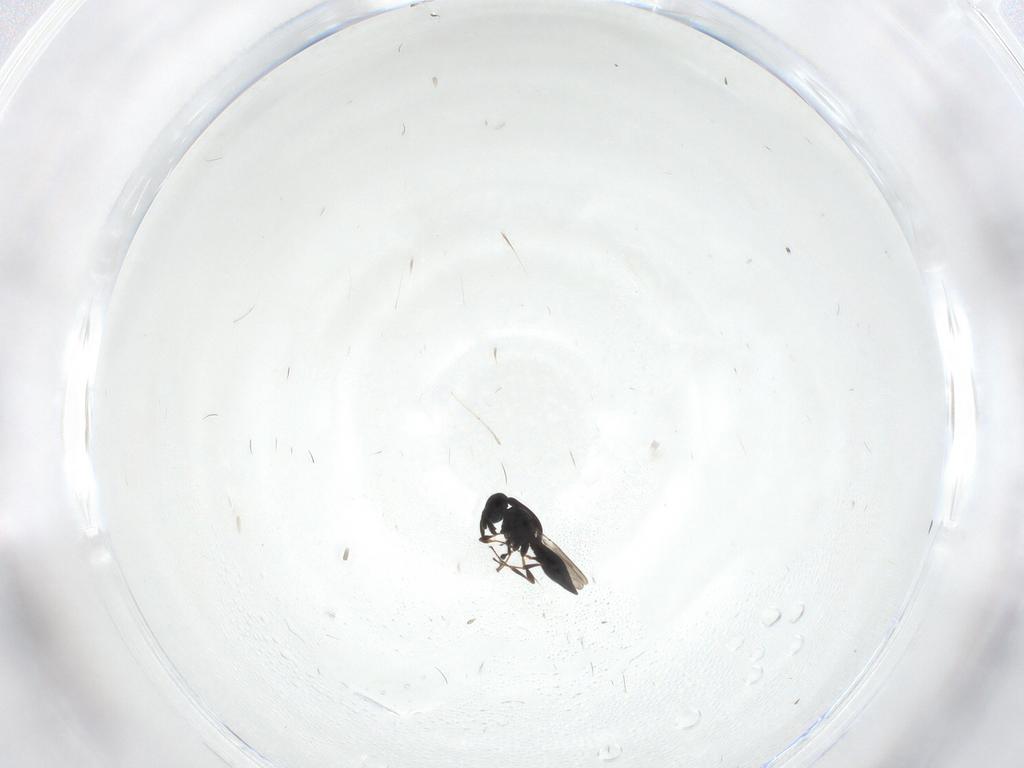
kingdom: Animalia
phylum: Arthropoda
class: Insecta
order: Hymenoptera
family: Platygastridae
